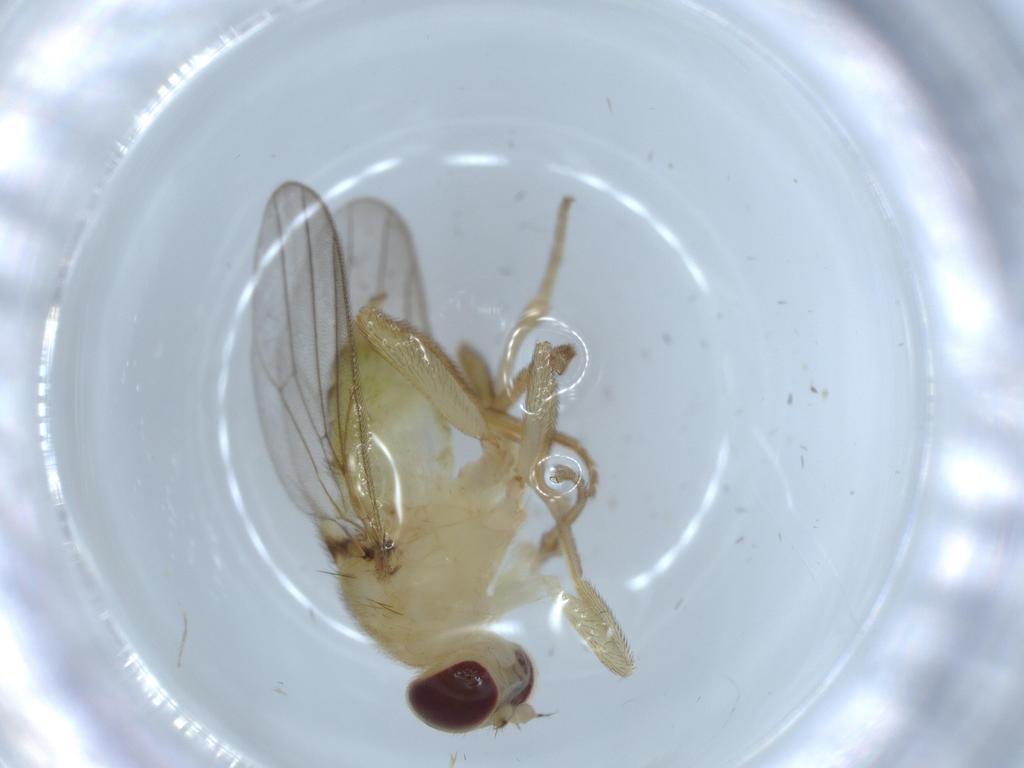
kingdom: Animalia
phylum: Arthropoda
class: Insecta
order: Diptera
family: Chloropidae
